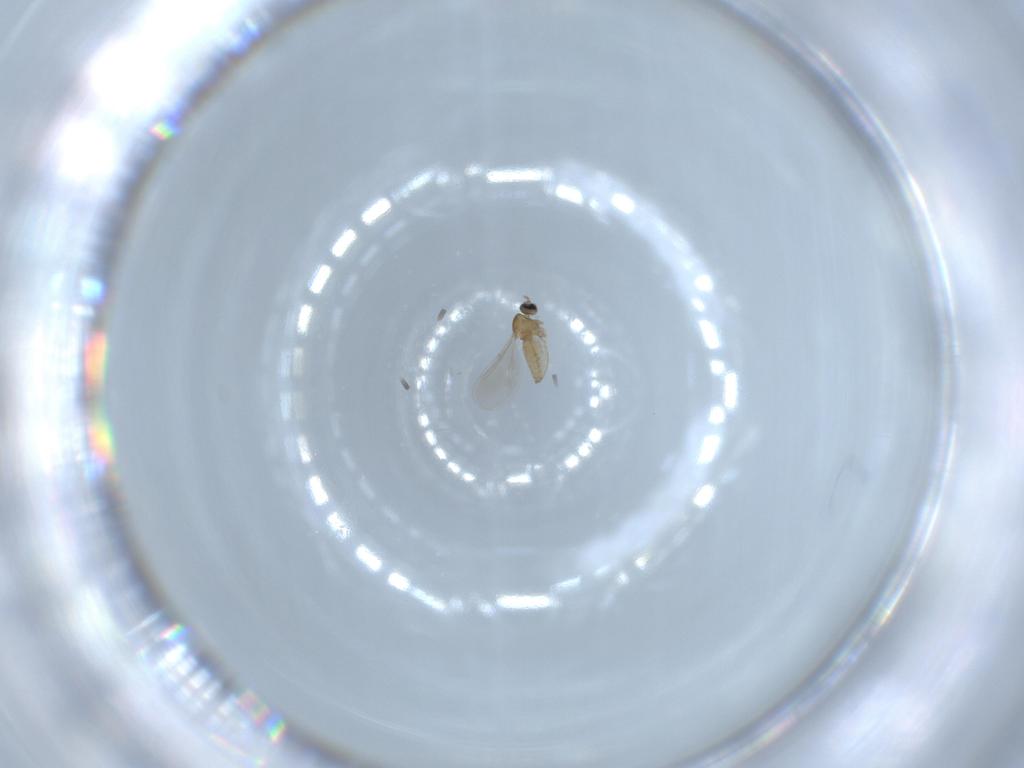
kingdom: Animalia
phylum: Arthropoda
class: Insecta
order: Diptera
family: Cecidomyiidae
